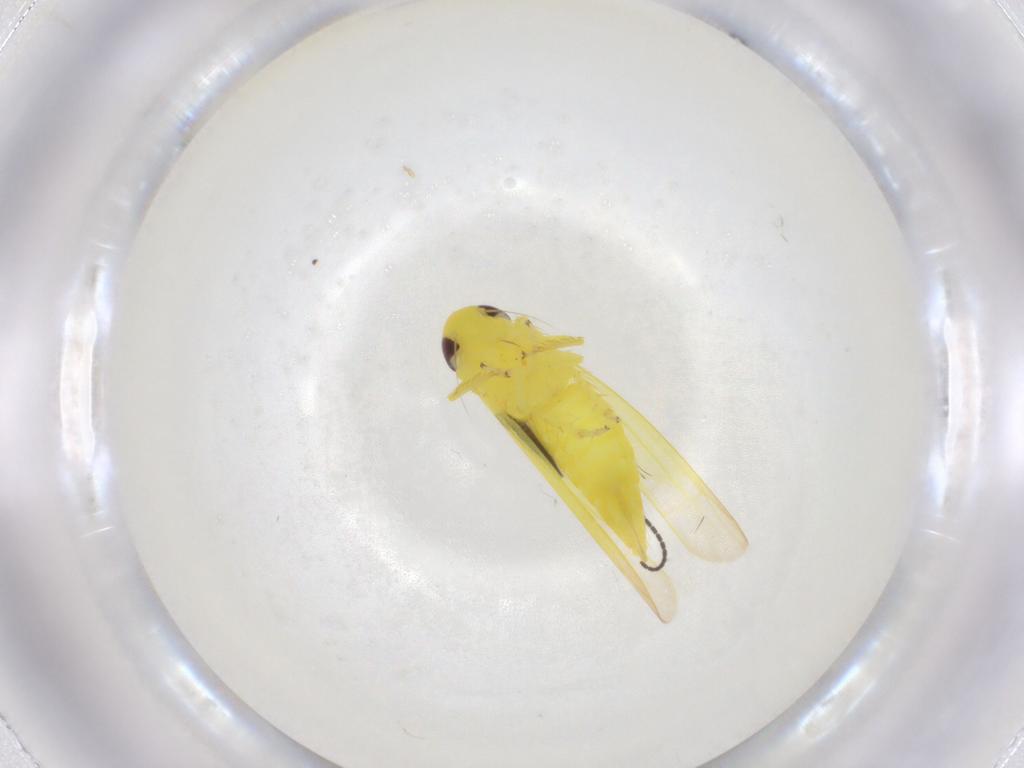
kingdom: Animalia
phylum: Arthropoda
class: Insecta
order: Hemiptera
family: Cicadellidae
